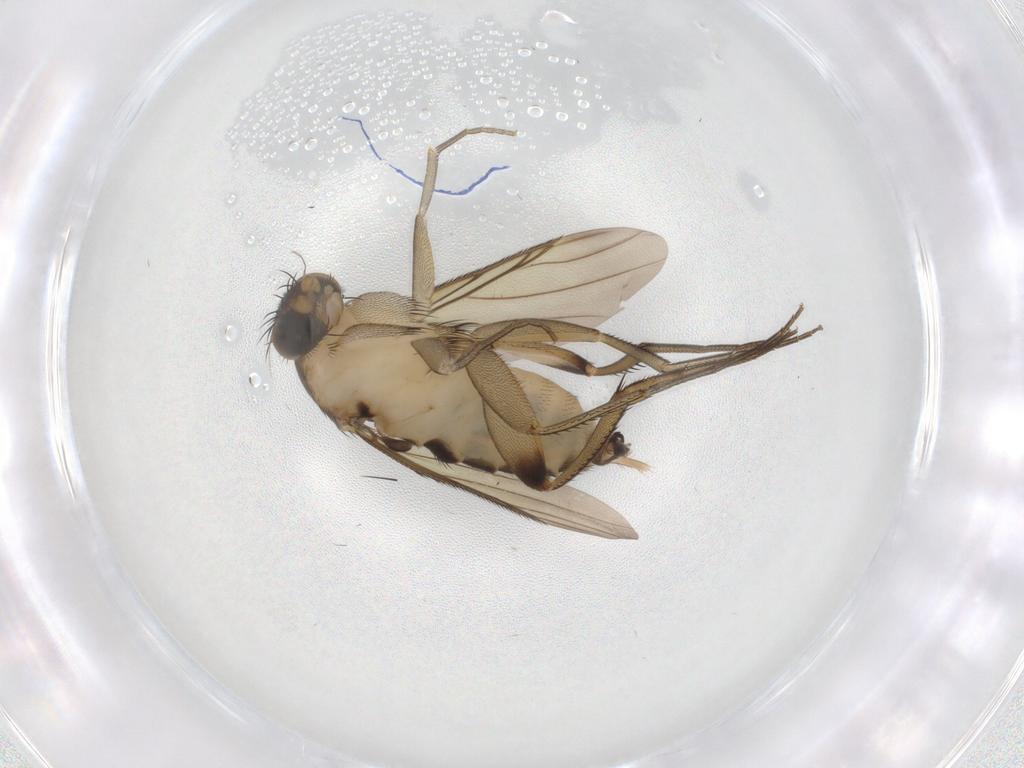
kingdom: Animalia
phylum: Arthropoda
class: Insecta
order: Diptera
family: Phoridae
